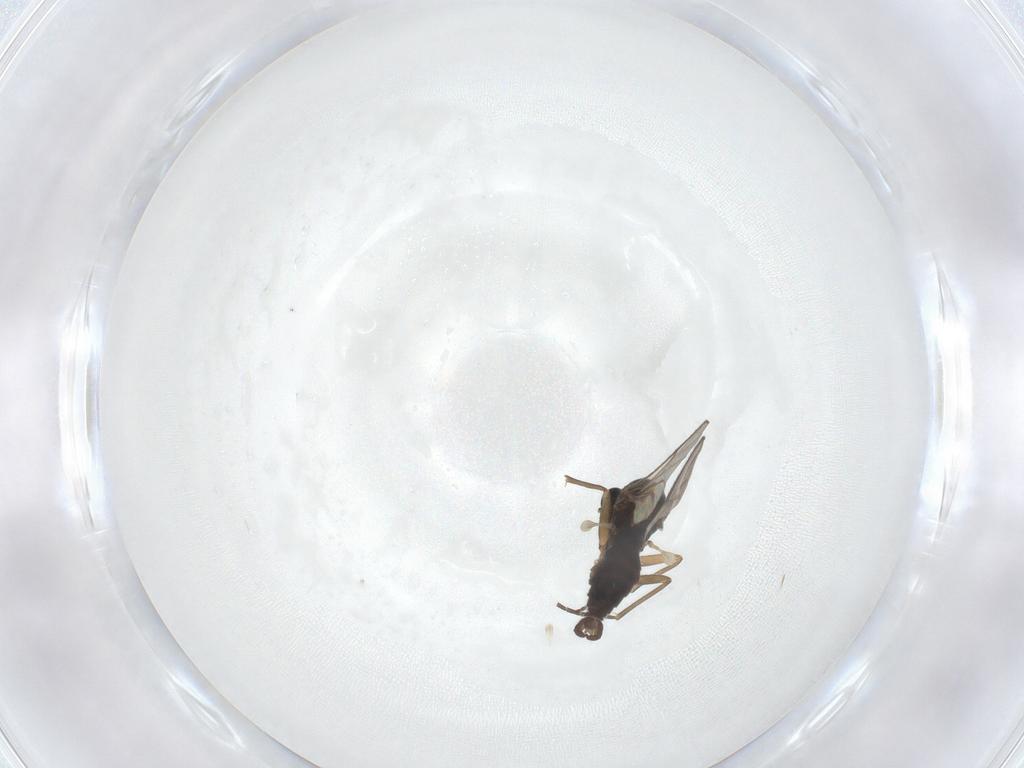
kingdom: Animalia
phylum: Arthropoda
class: Insecta
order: Diptera
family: Sciaridae
